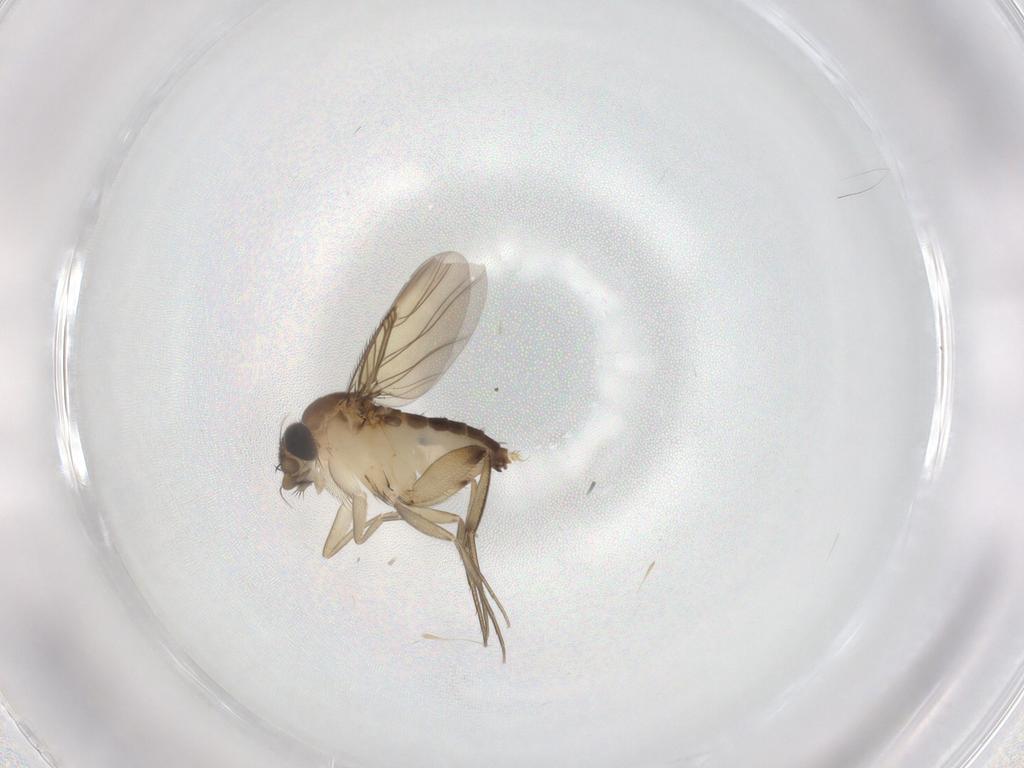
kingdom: Animalia
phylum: Arthropoda
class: Insecta
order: Diptera
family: Phoridae
